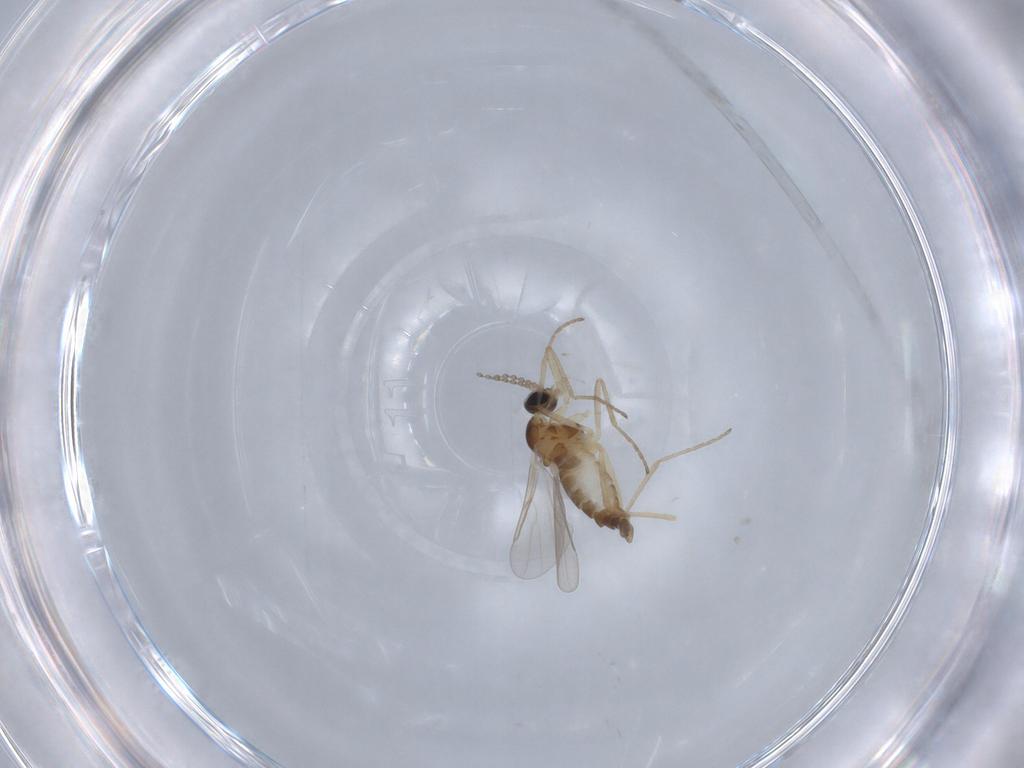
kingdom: Animalia
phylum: Arthropoda
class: Insecta
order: Diptera
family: Cecidomyiidae
